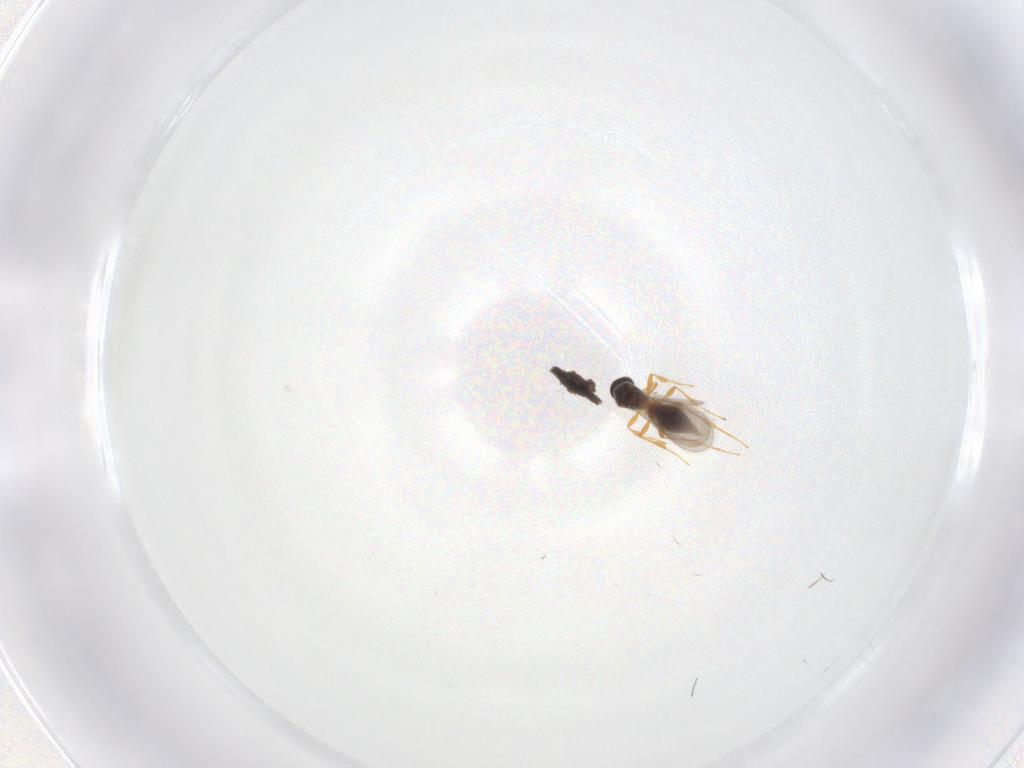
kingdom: Animalia
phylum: Arthropoda
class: Insecta
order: Hymenoptera
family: Platygastridae
